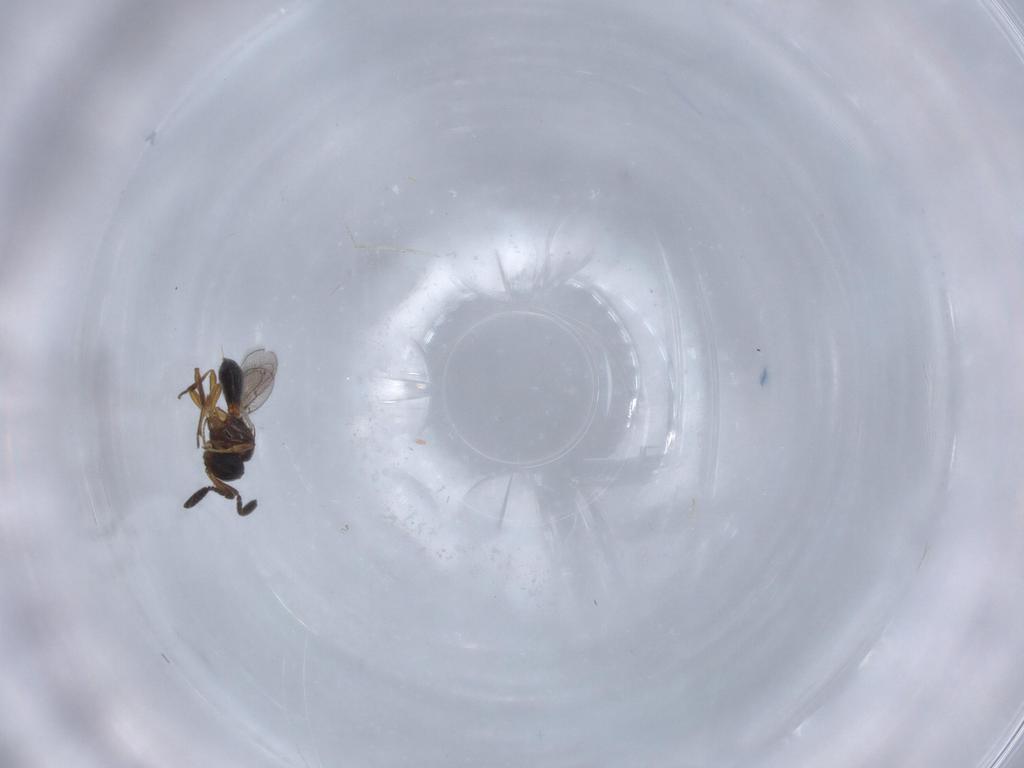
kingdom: Animalia
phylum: Arthropoda
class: Insecta
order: Hymenoptera
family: Scelionidae
